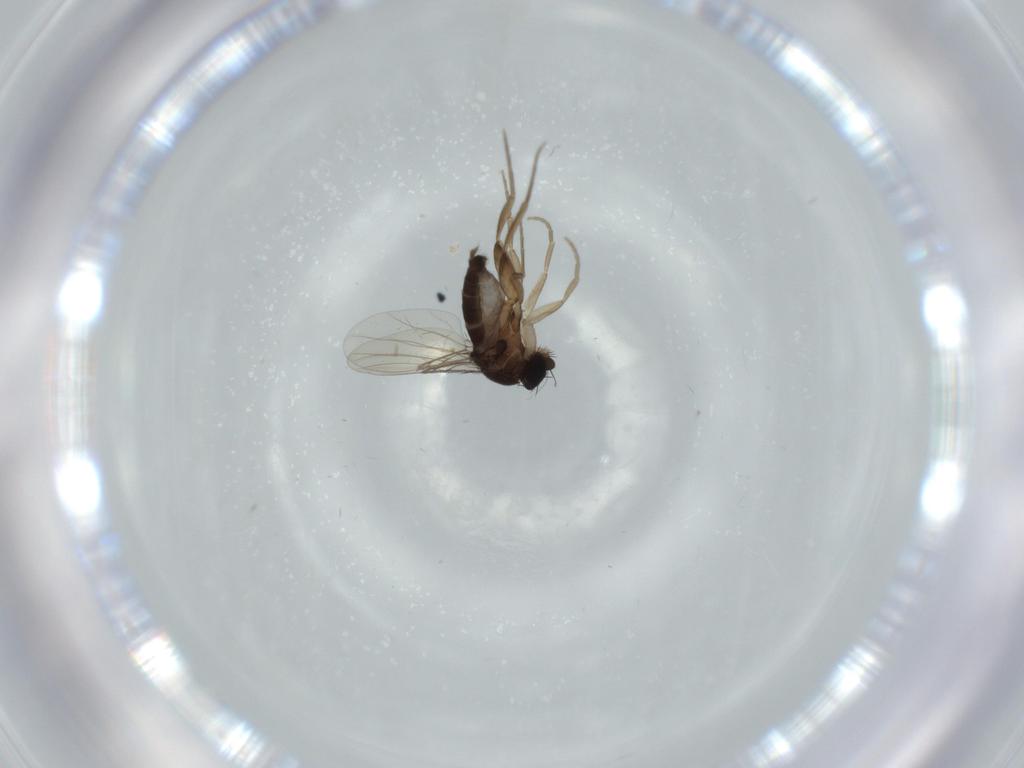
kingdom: Animalia
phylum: Arthropoda
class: Insecta
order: Diptera
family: Phoridae
